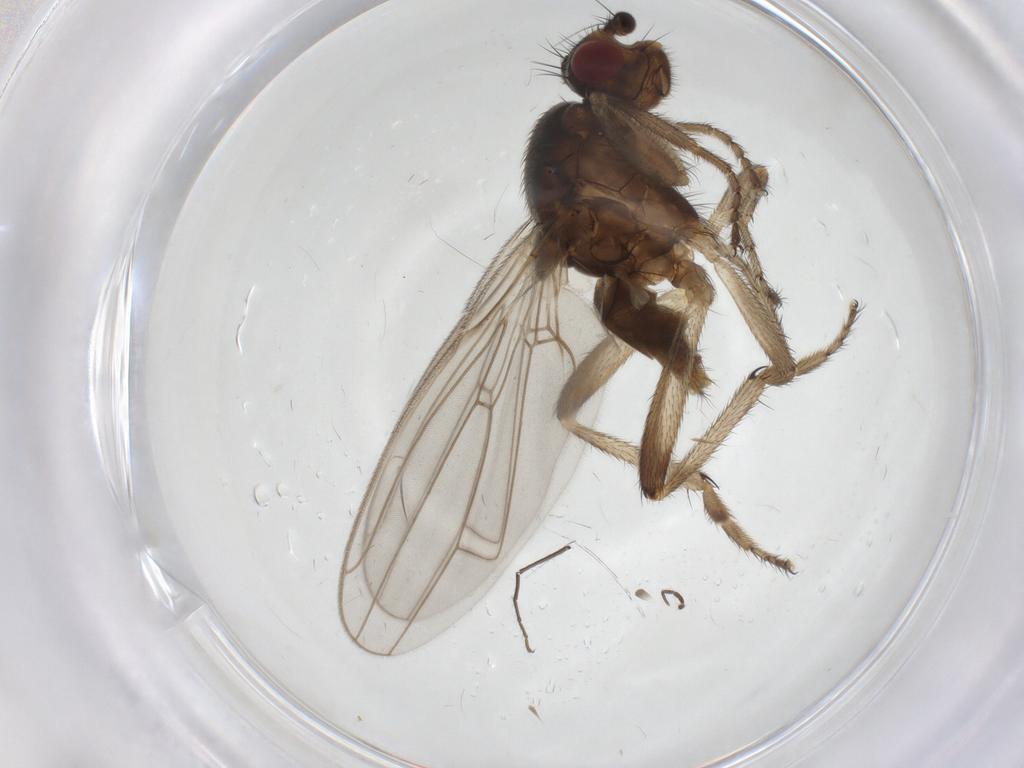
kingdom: Animalia
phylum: Arthropoda
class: Insecta
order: Diptera
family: Sphaeroceridae
